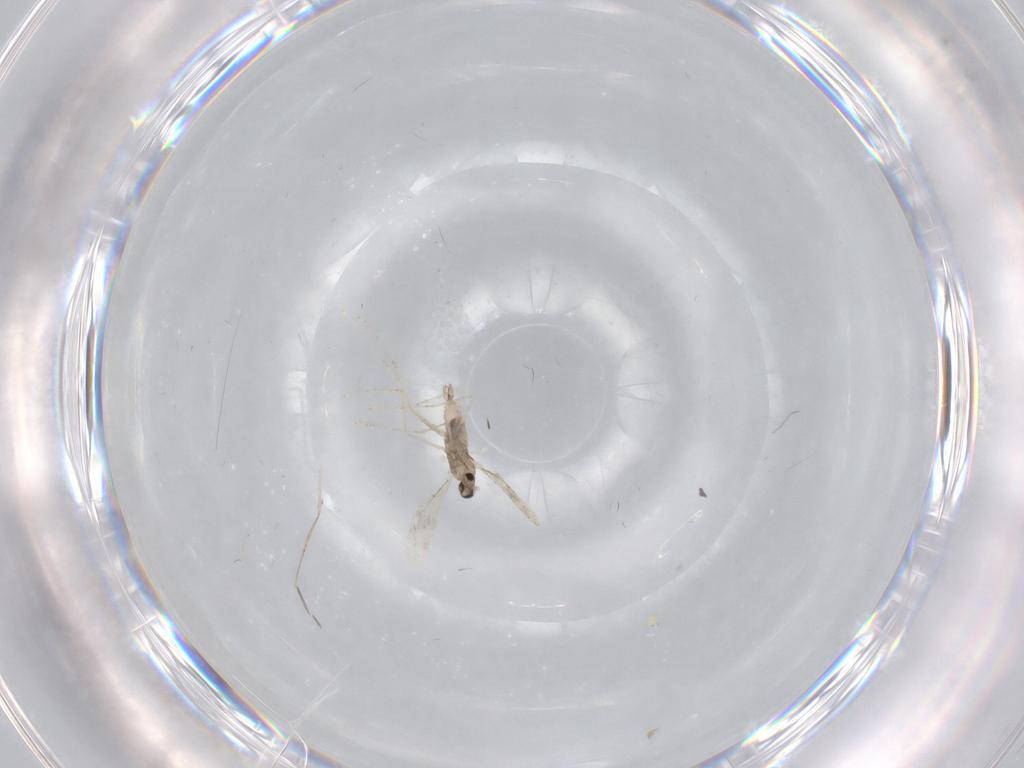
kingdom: Animalia
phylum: Arthropoda
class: Insecta
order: Diptera
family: Cecidomyiidae
